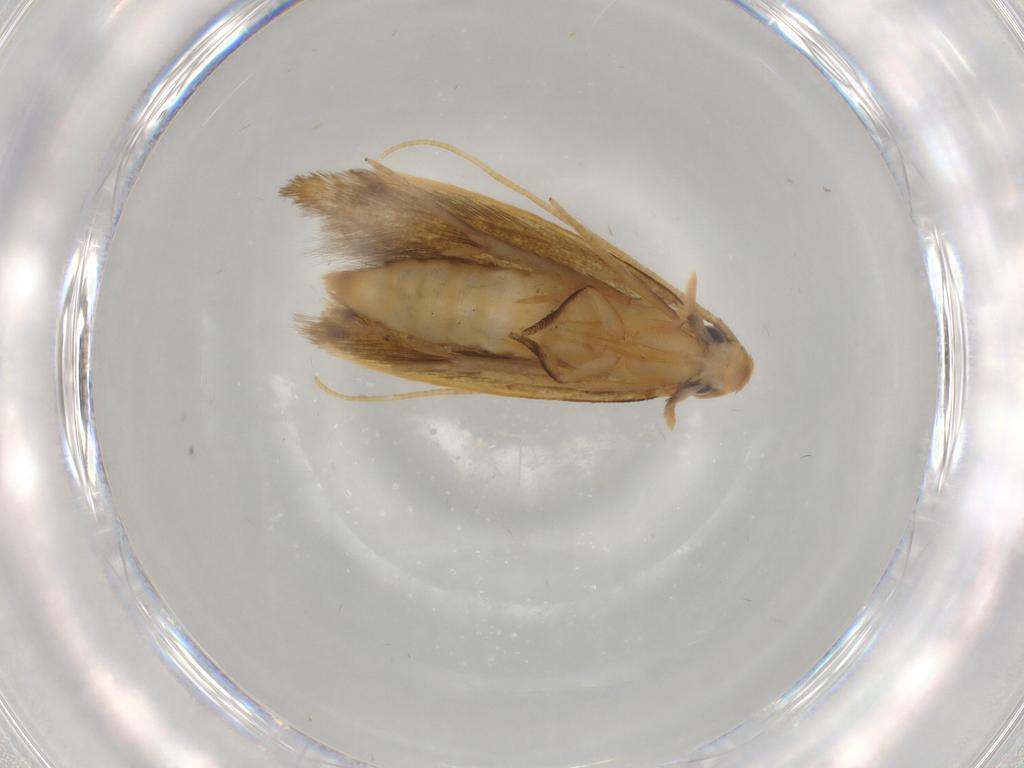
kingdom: Animalia
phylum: Arthropoda
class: Insecta
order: Lepidoptera
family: Tineidae
